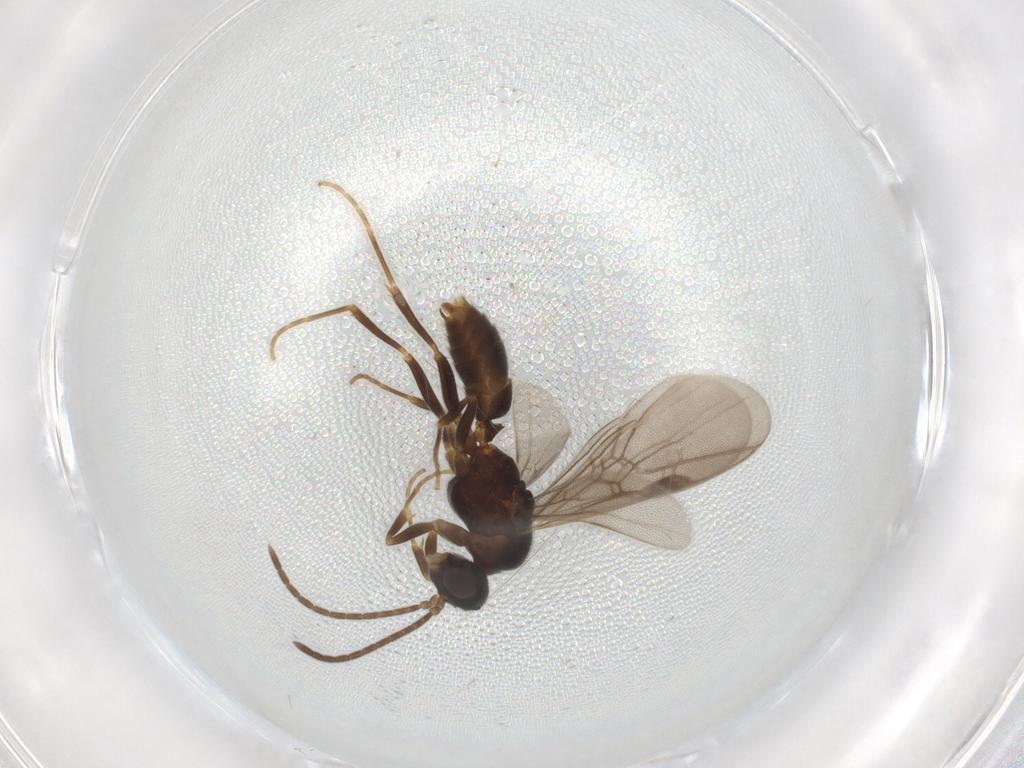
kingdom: Animalia
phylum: Arthropoda
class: Insecta
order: Hymenoptera
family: Formicidae
